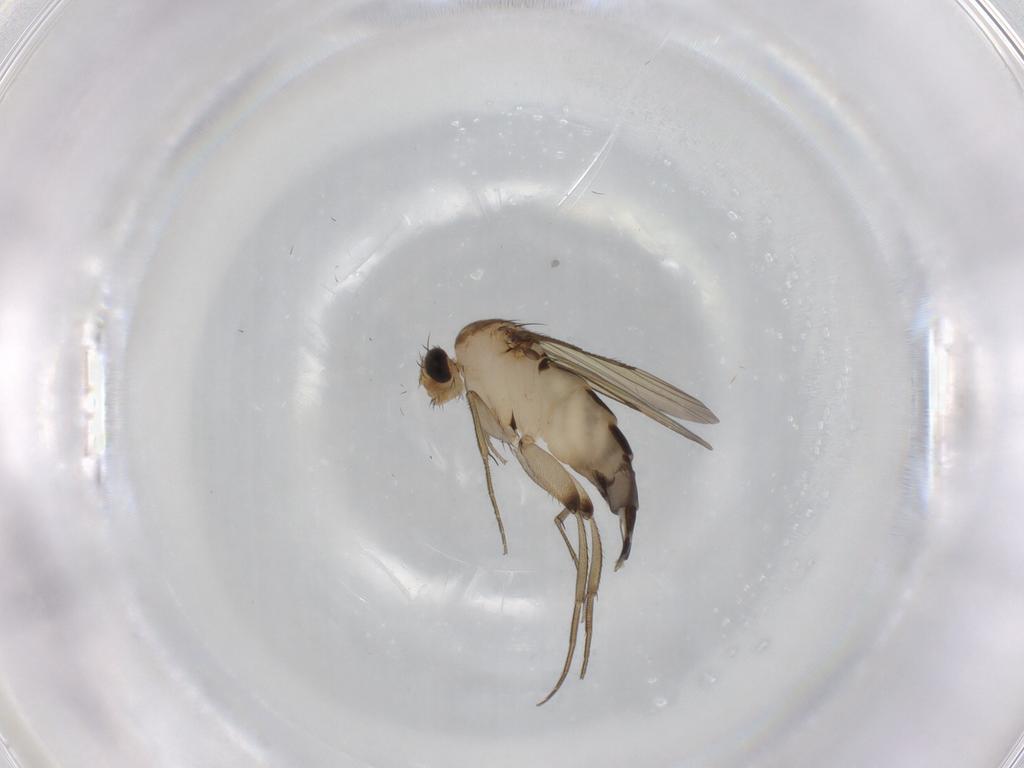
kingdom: Animalia
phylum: Arthropoda
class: Insecta
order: Diptera
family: Phoridae
